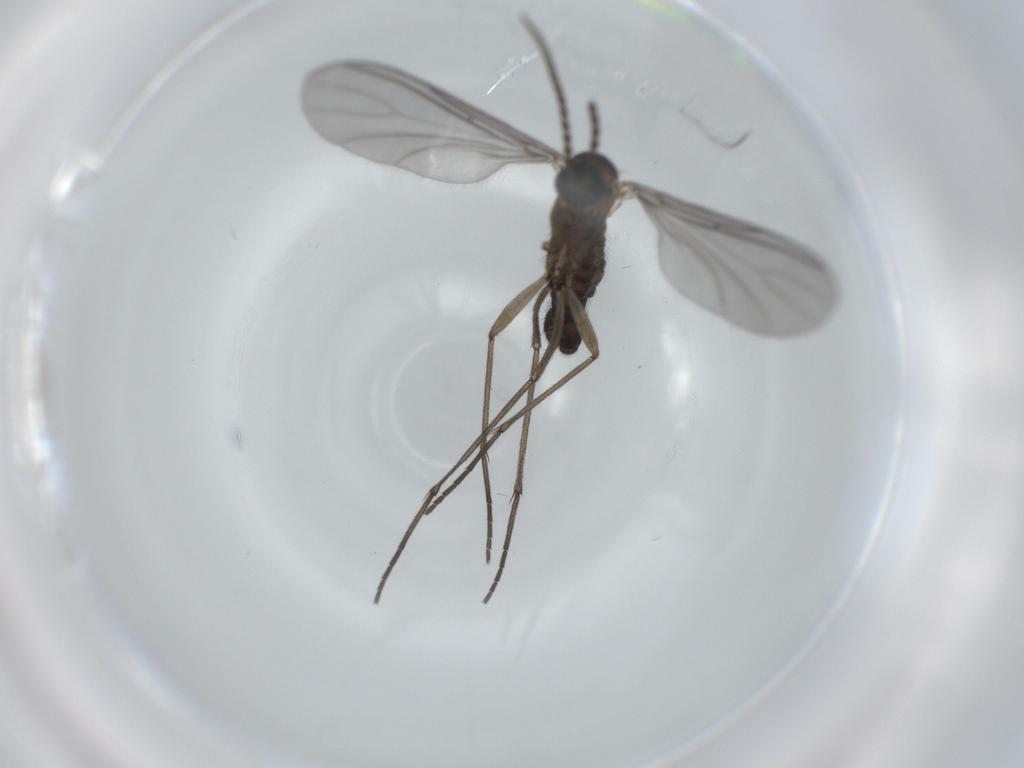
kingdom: Animalia
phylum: Arthropoda
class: Insecta
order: Diptera
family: Sciaridae
